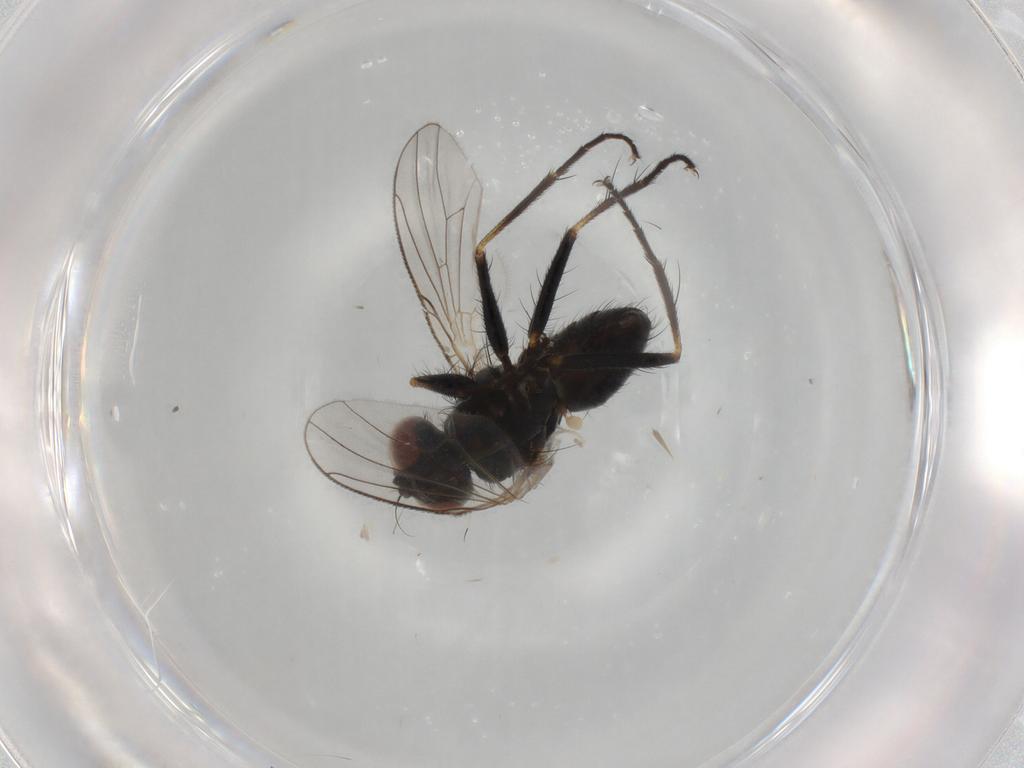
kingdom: Animalia
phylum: Arthropoda
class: Insecta
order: Diptera
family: Muscidae
